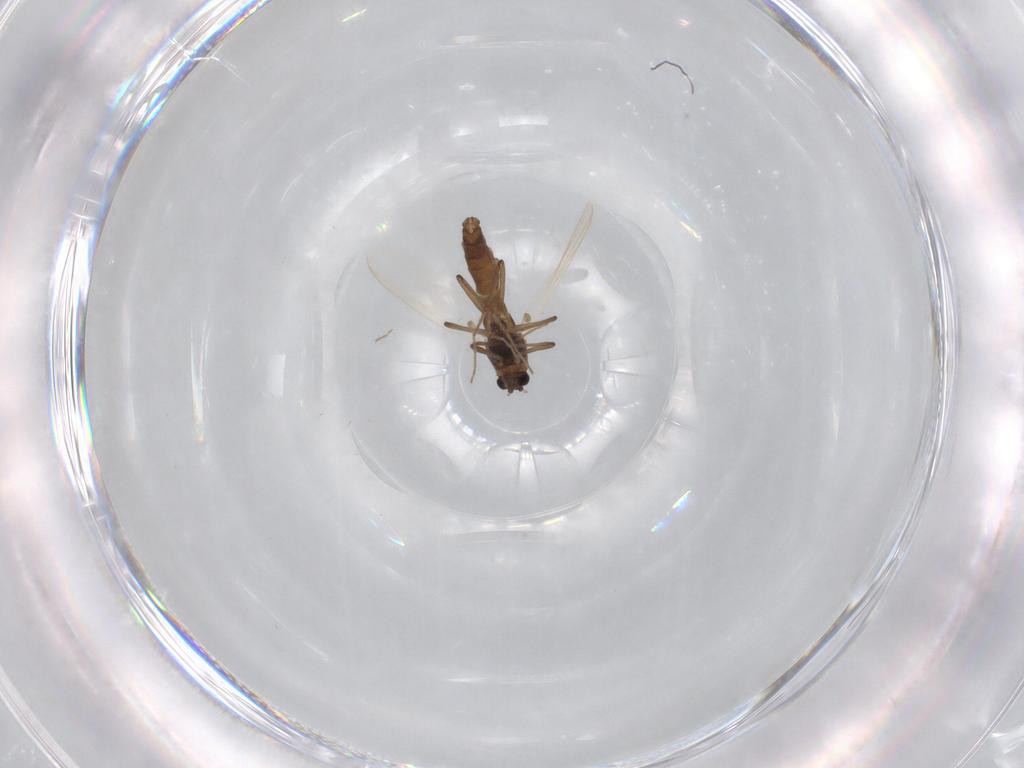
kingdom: Animalia
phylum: Arthropoda
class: Insecta
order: Diptera
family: Chironomidae
